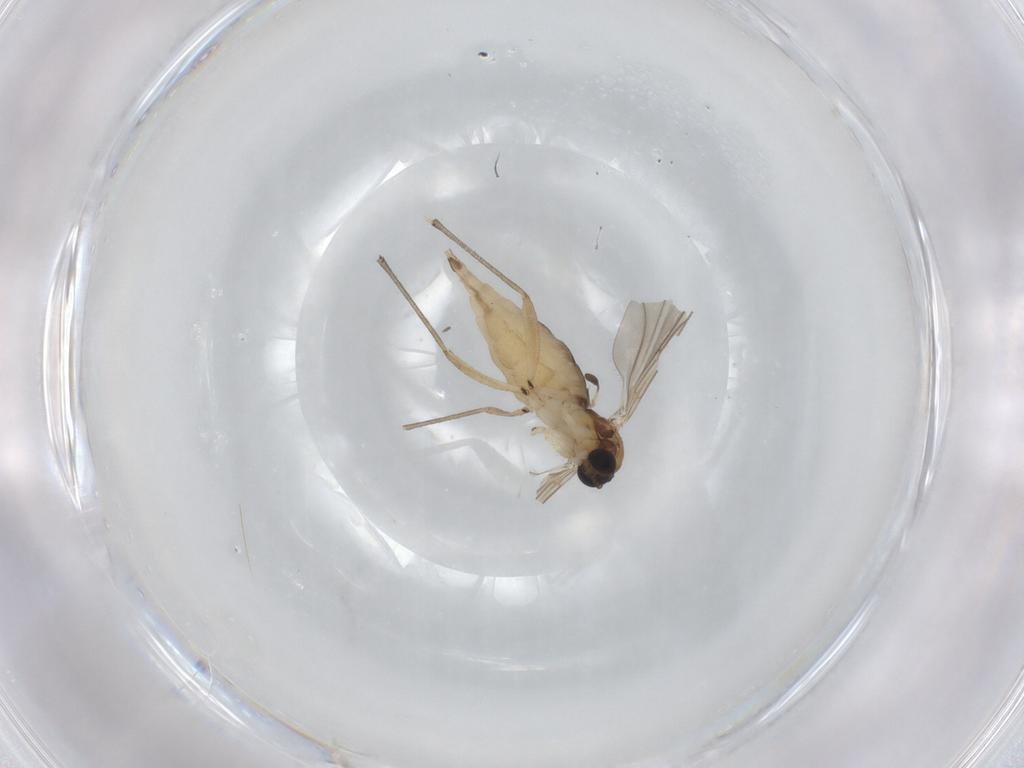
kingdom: Animalia
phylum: Arthropoda
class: Insecta
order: Diptera
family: Sciaridae
